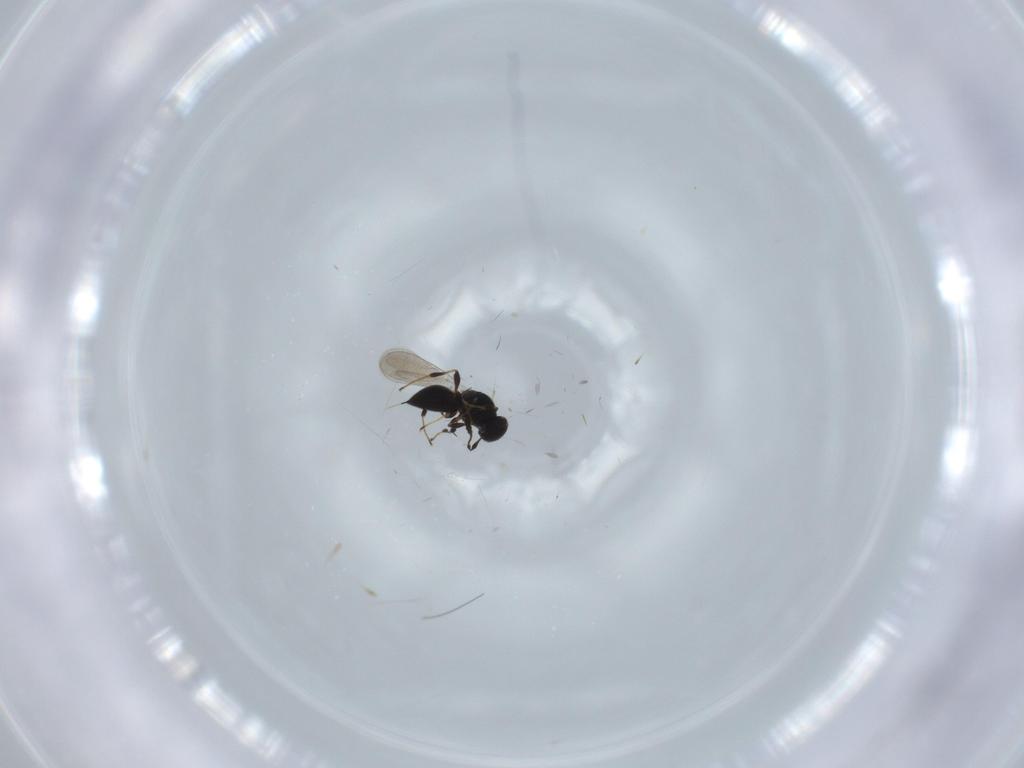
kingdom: Animalia
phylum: Arthropoda
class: Insecta
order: Hymenoptera
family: Platygastridae
